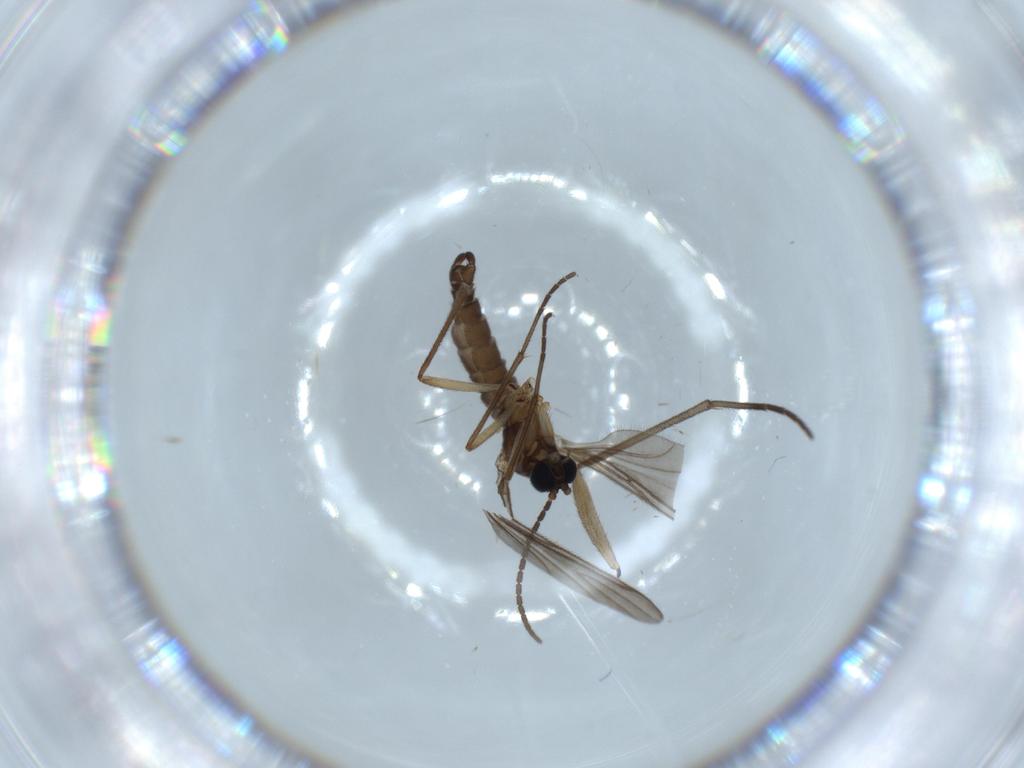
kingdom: Animalia
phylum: Arthropoda
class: Insecta
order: Diptera
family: Sciaridae
